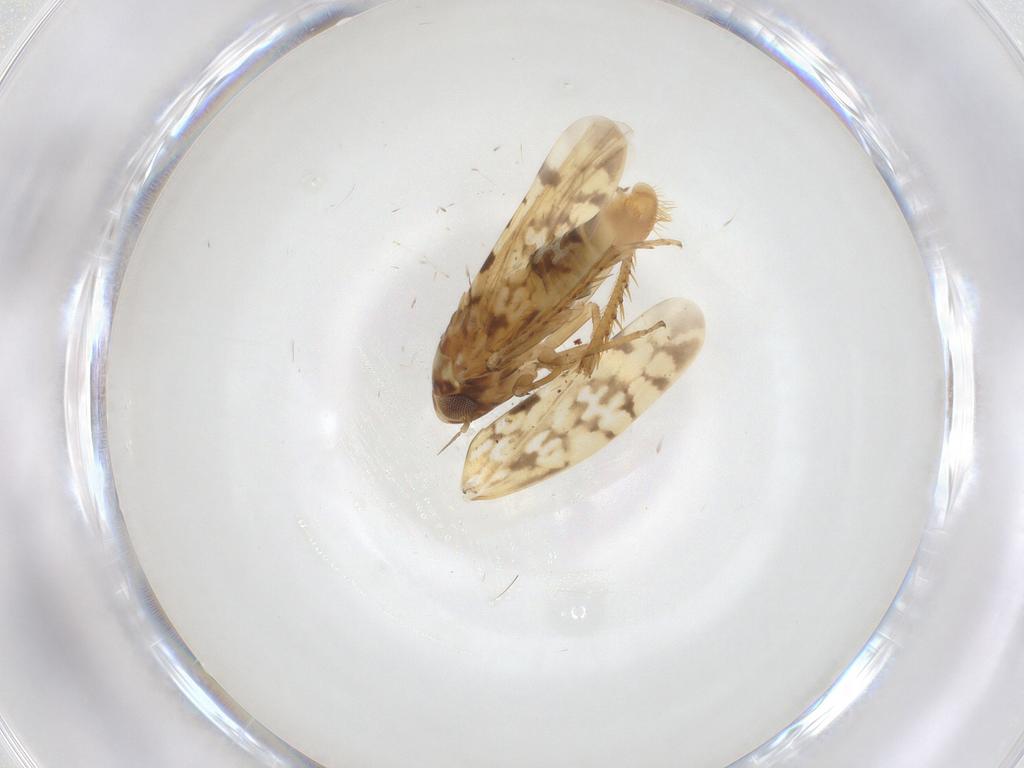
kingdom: Animalia
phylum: Arthropoda
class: Insecta
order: Hemiptera
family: Cicadellidae
